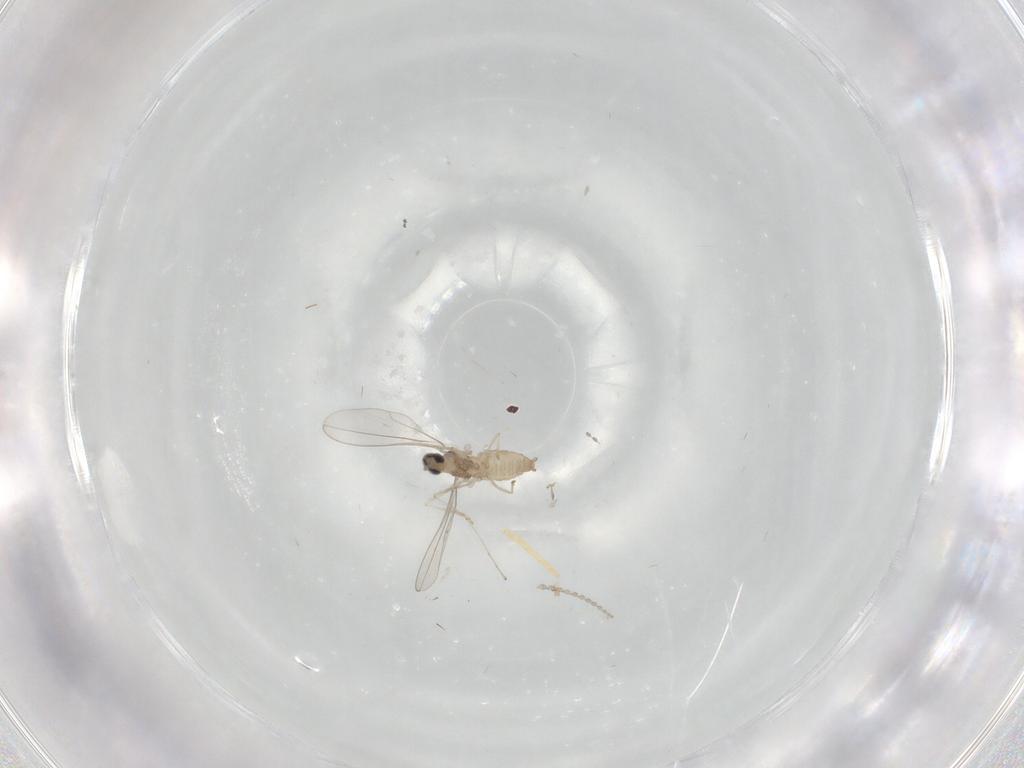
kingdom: Animalia
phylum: Arthropoda
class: Insecta
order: Diptera
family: Cecidomyiidae
